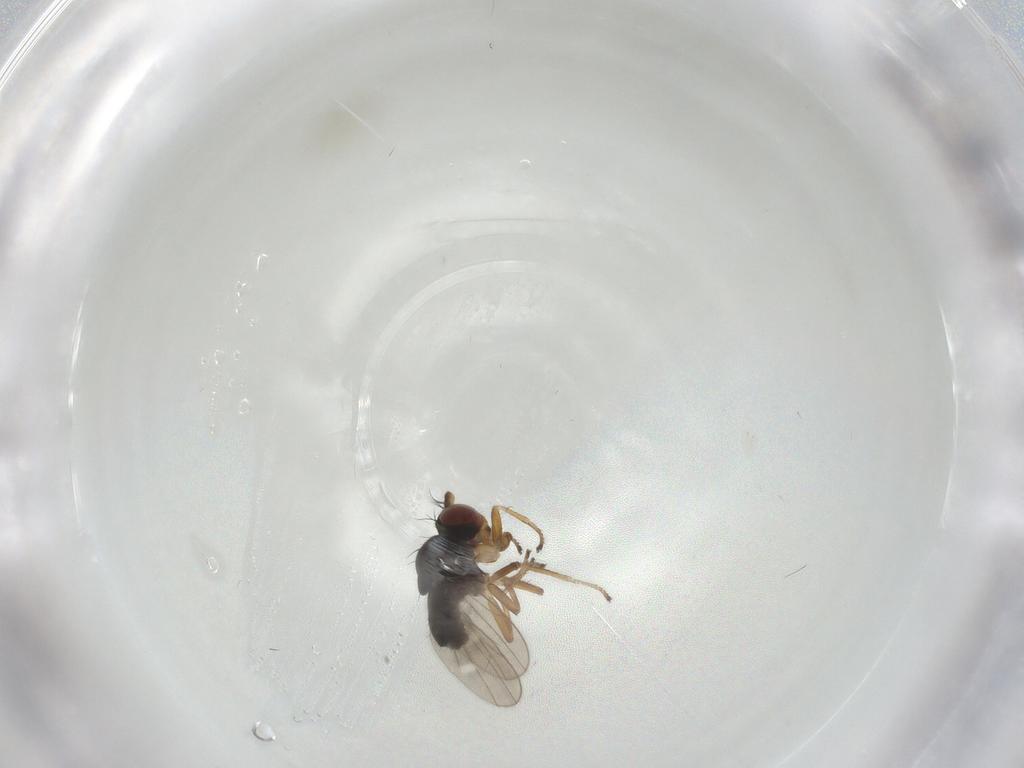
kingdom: Animalia
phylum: Arthropoda
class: Insecta
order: Diptera
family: Ephydridae
